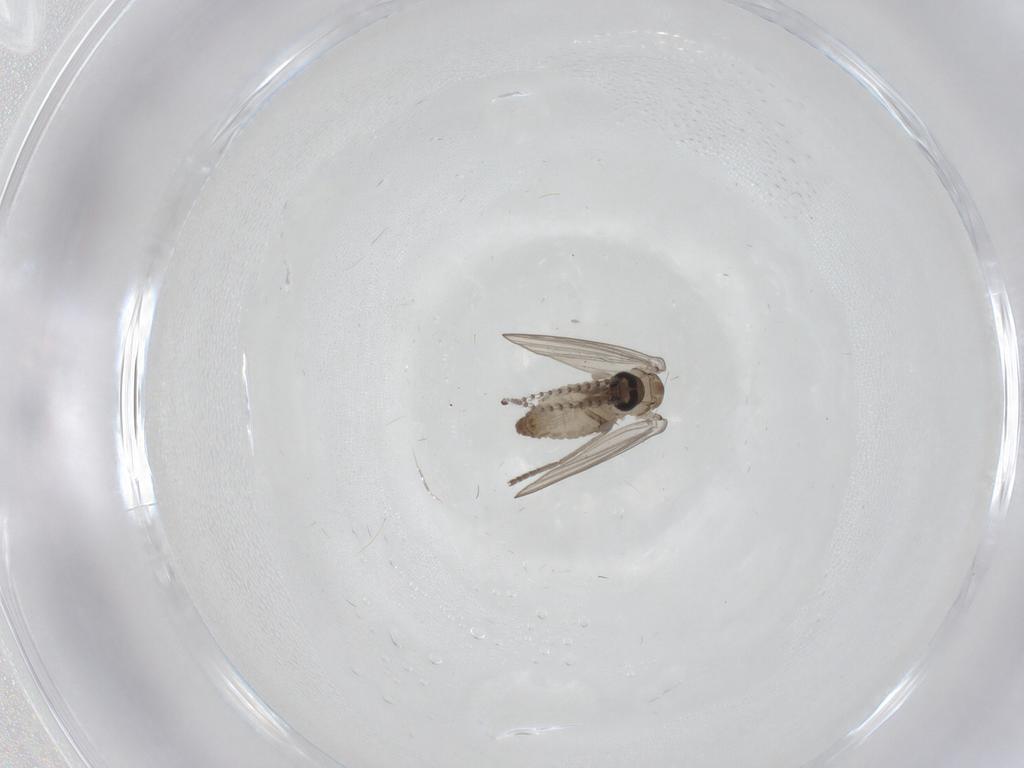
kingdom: Animalia
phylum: Arthropoda
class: Insecta
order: Diptera
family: Psychodidae
